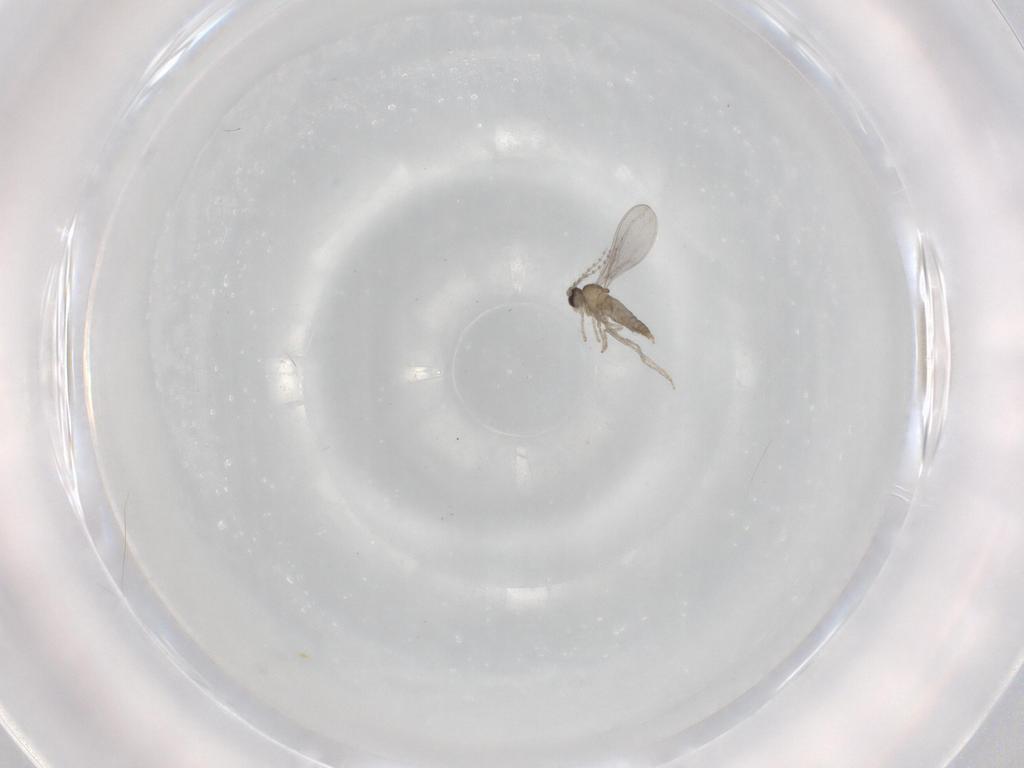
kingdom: Animalia
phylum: Arthropoda
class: Insecta
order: Diptera
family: Cecidomyiidae
